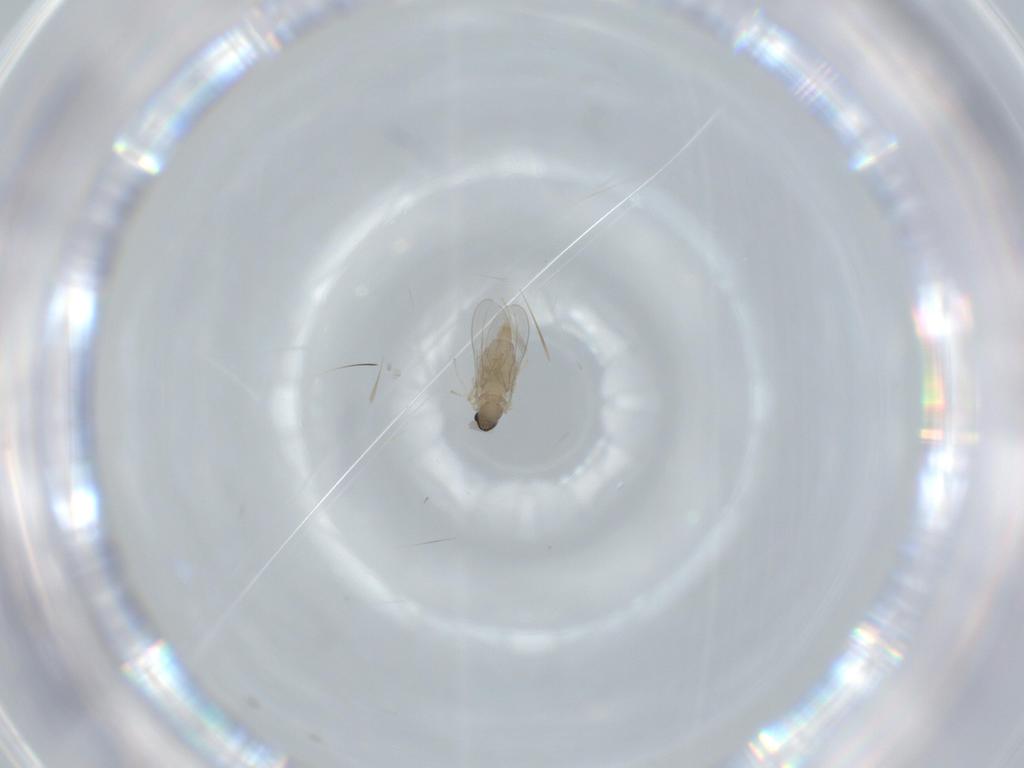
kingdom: Animalia
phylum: Arthropoda
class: Insecta
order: Diptera
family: Cecidomyiidae
